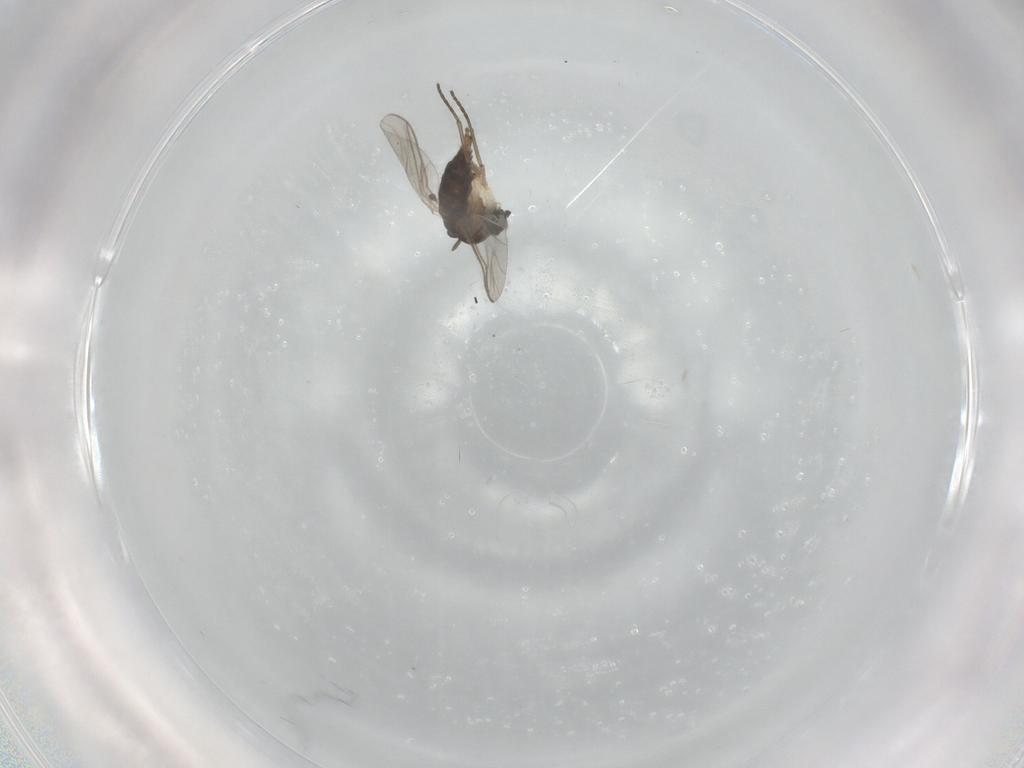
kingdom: Animalia
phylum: Arthropoda
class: Insecta
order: Diptera
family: Sciaridae
